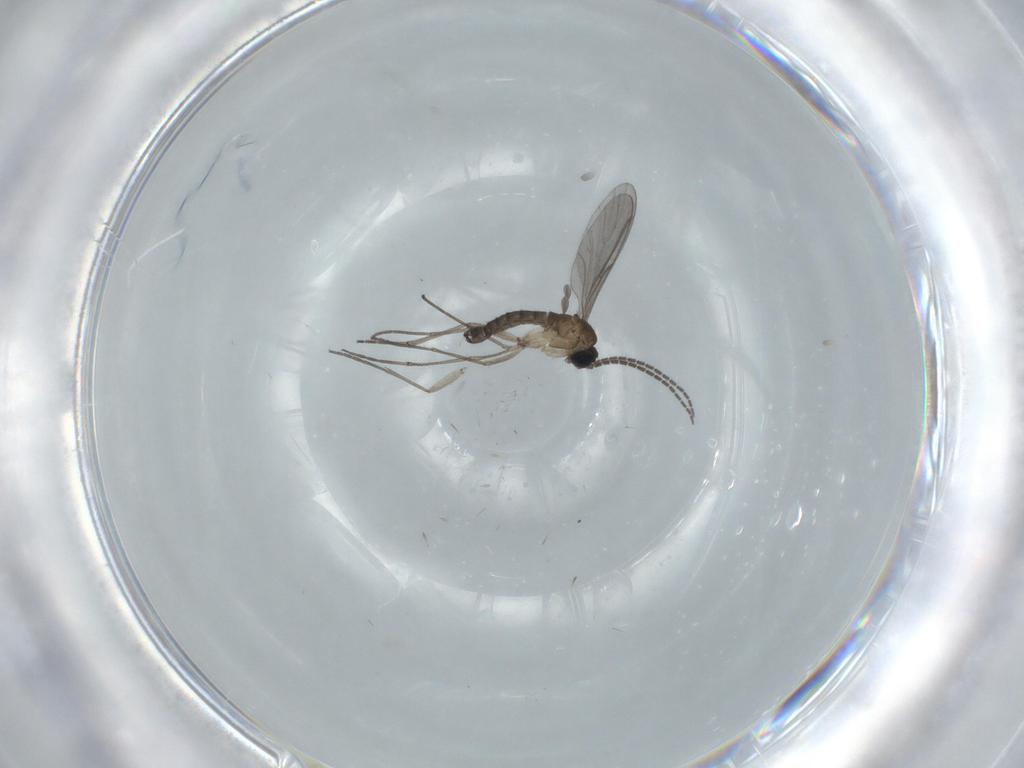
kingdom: Animalia
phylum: Arthropoda
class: Insecta
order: Diptera
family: Sciaridae
